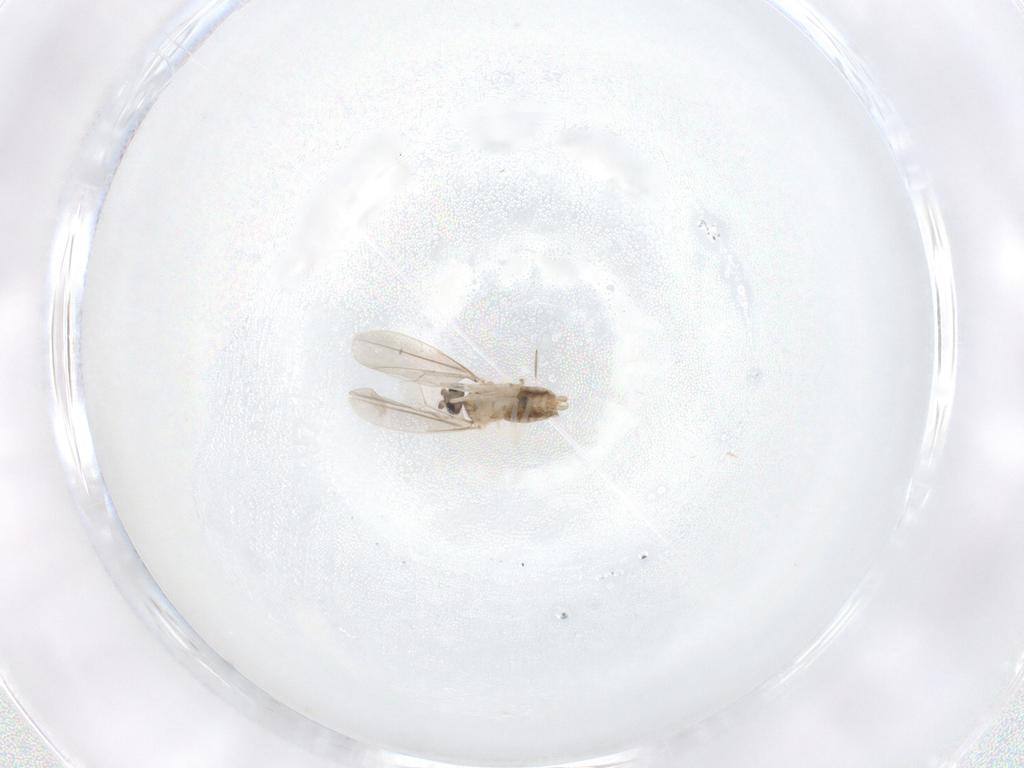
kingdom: Animalia
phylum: Arthropoda
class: Insecta
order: Diptera
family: Cecidomyiidae
